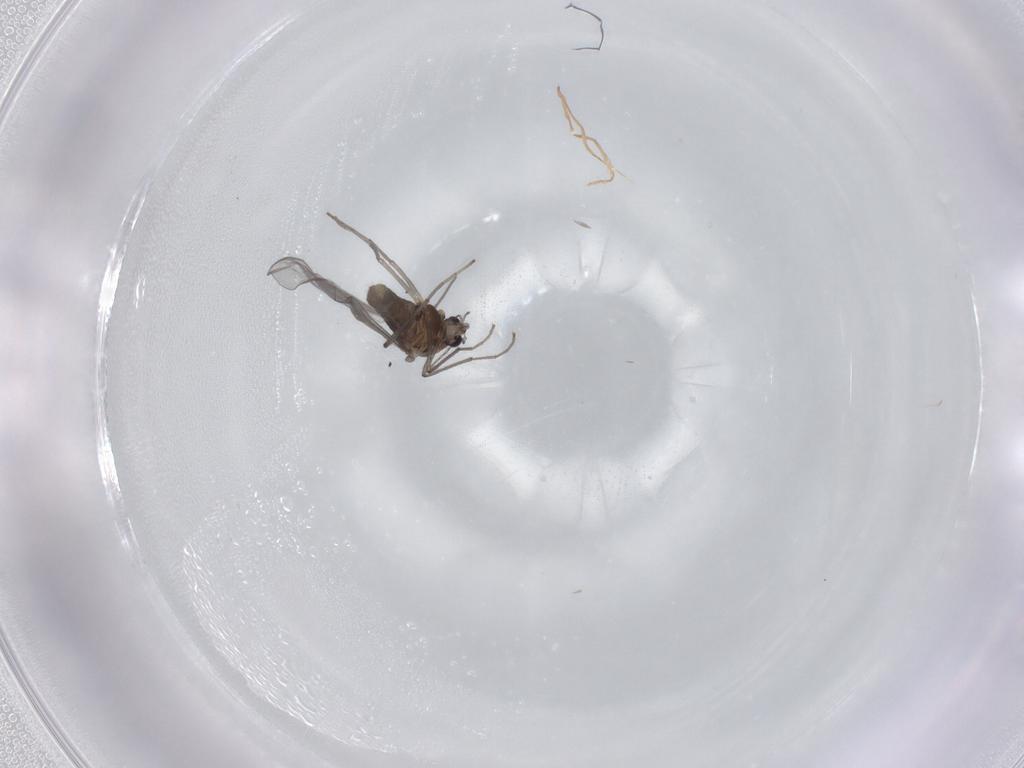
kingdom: Animalia
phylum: Arthropoda
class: Insecta
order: Diptera
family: Chironomidae
